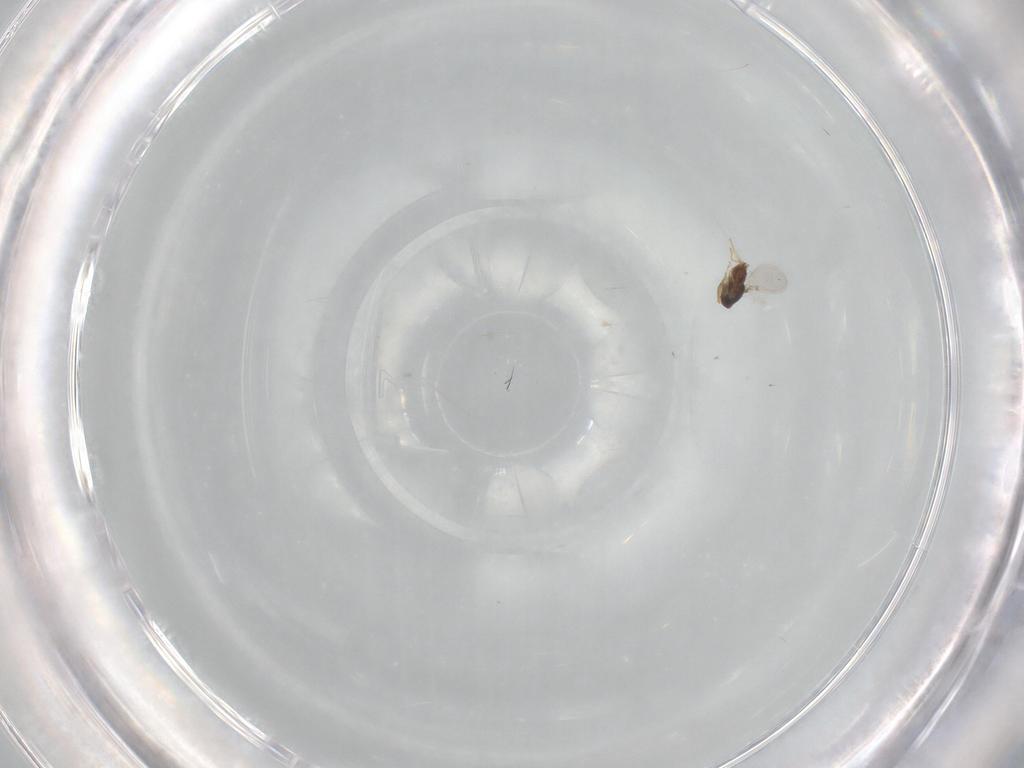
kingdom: Animalia
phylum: Arthropoda
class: Insecta
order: Hymenoptera
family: Encyrtidae
